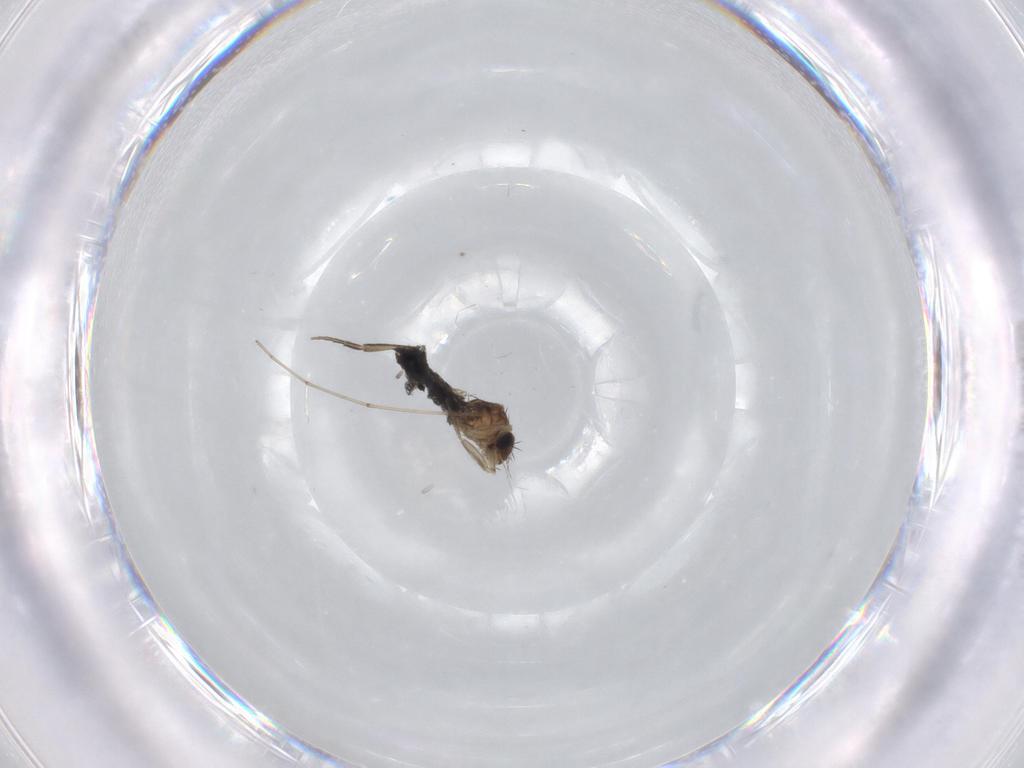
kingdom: Animalia
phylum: Arthropoda
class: Insecta
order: Diptera
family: Phoridae
